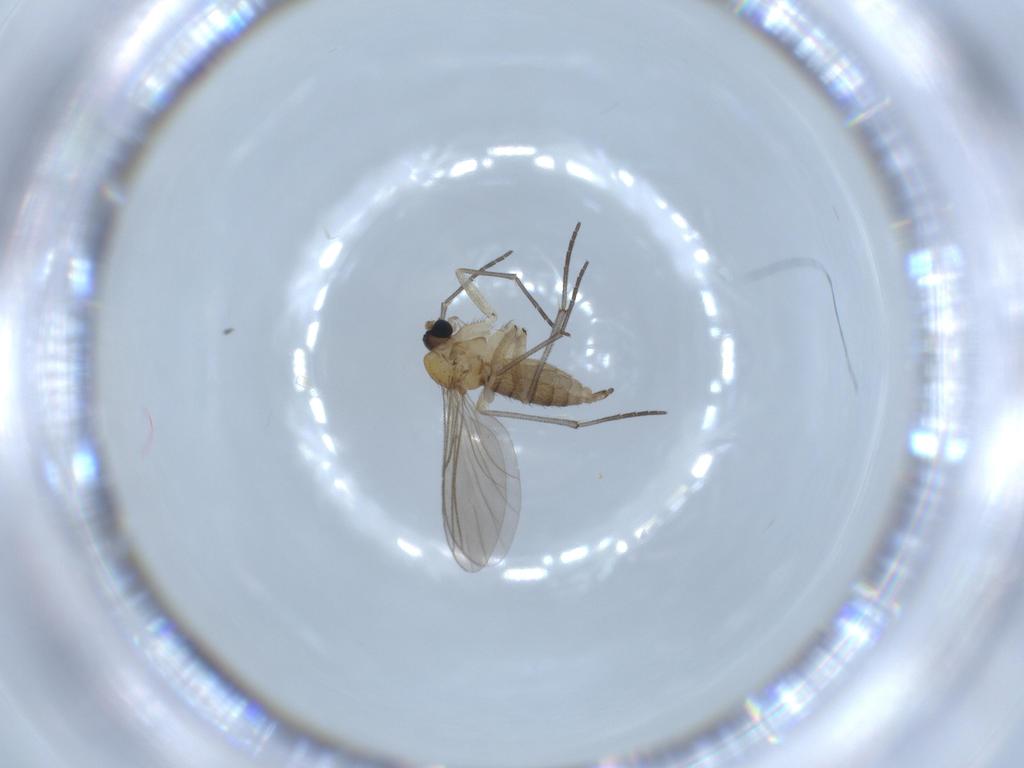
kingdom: Animalia
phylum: Arthropoda
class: Insecta
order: Diptera
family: Sciaridae
